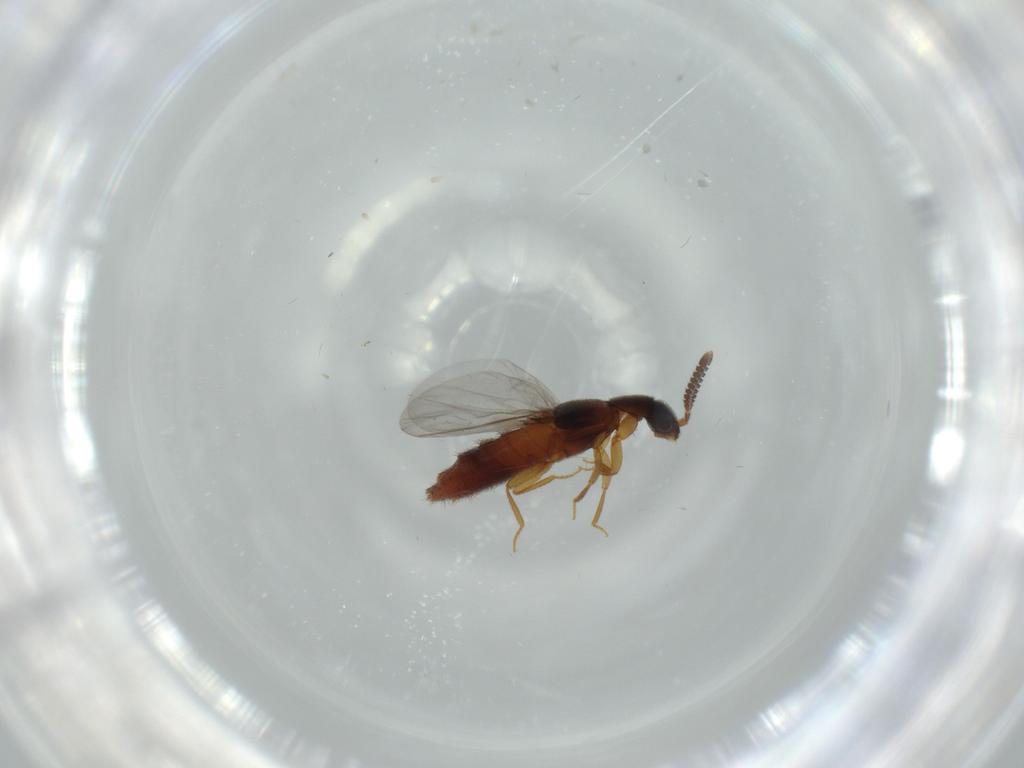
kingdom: Animalia
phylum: Arthropoda
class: Insecta
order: Coleoptera
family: Staphylinidae
